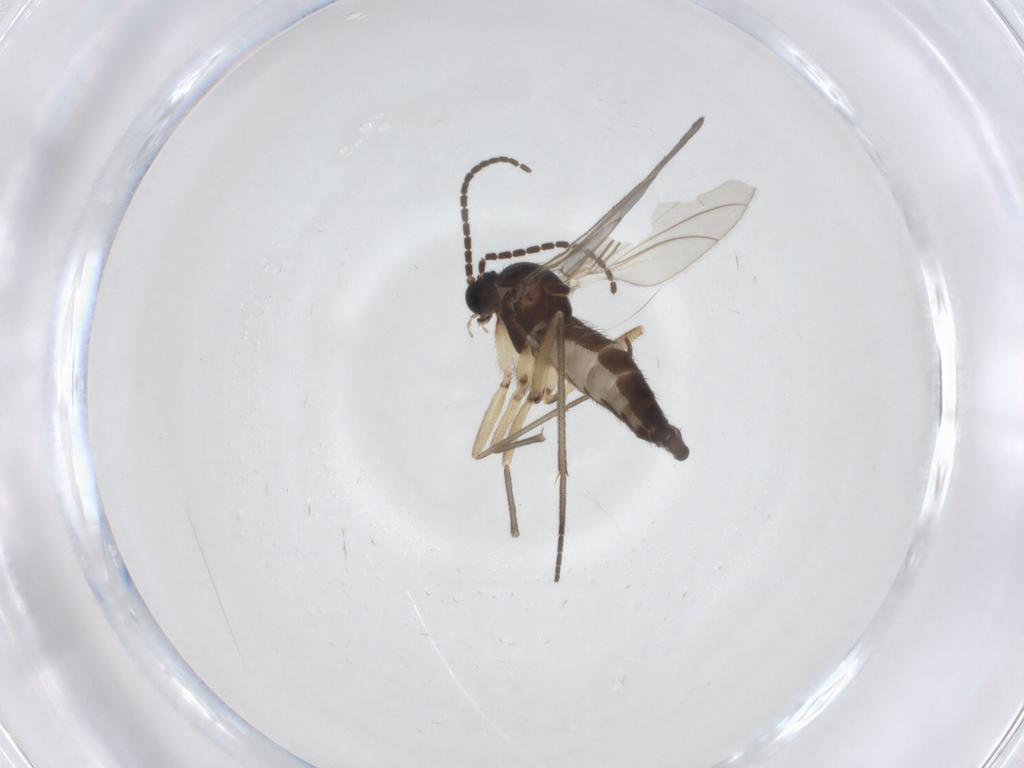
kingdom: Animalia
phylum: Arthropoda
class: Insecta
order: Diptera
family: Sciaridae
